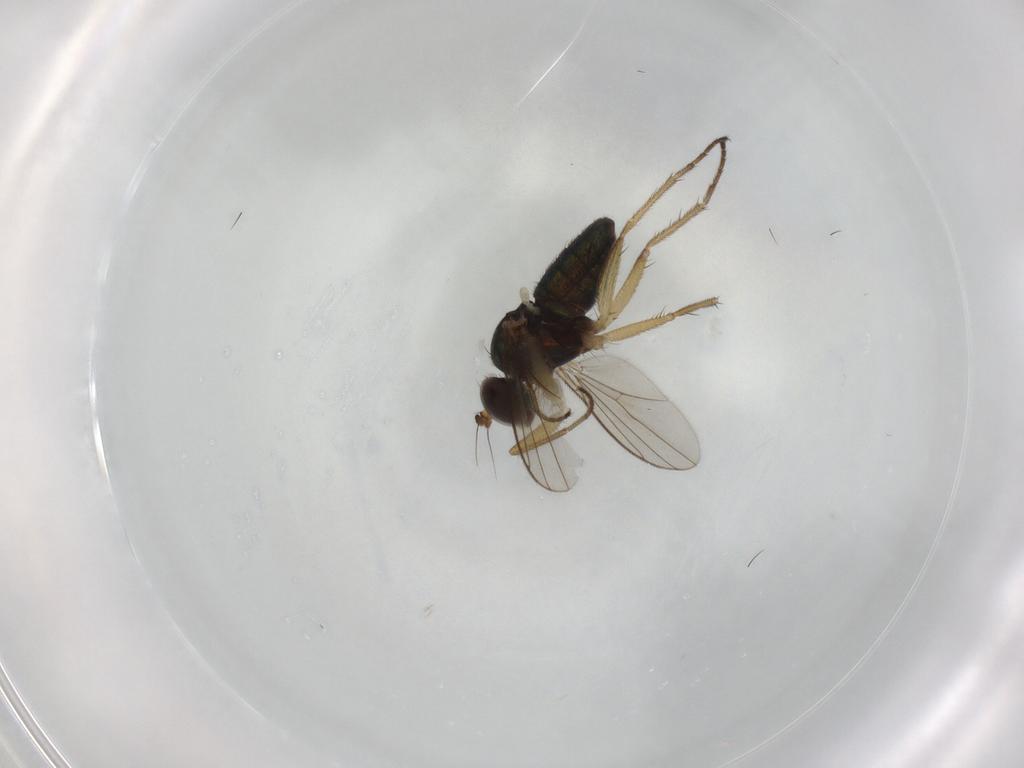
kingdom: Animalia
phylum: Arthropoda
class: Insecta
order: Diptera
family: Dolichopodidae
